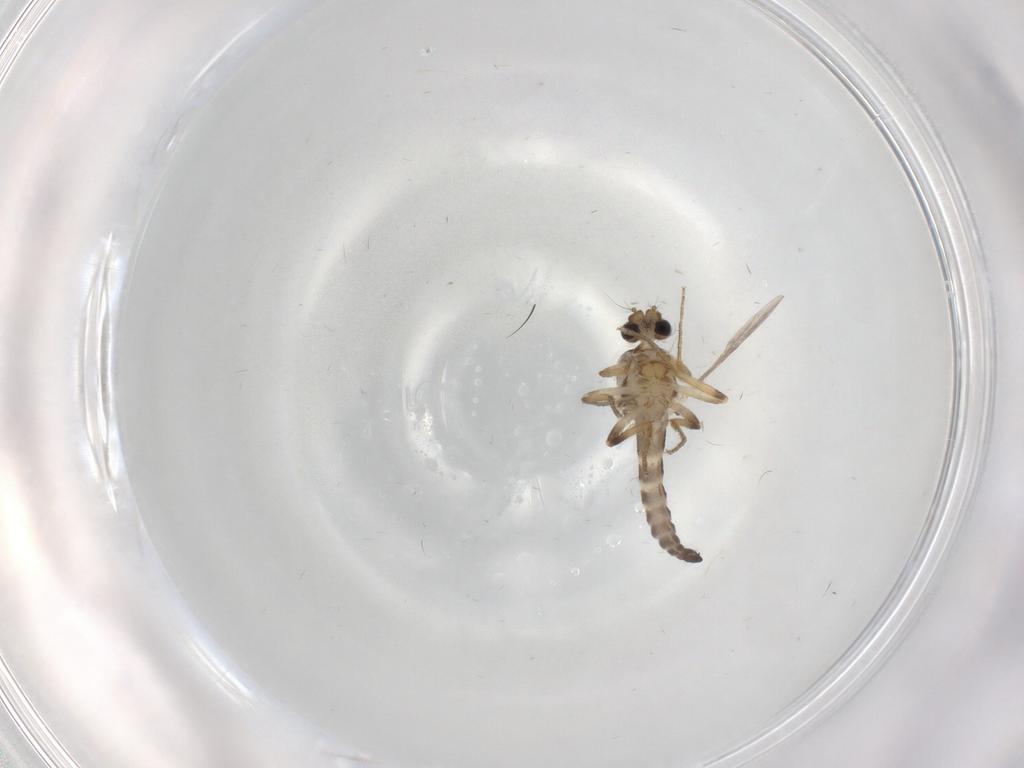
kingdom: Animalia
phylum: Arthropoda
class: Insecta
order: Diptera
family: Ceratopogonidae
